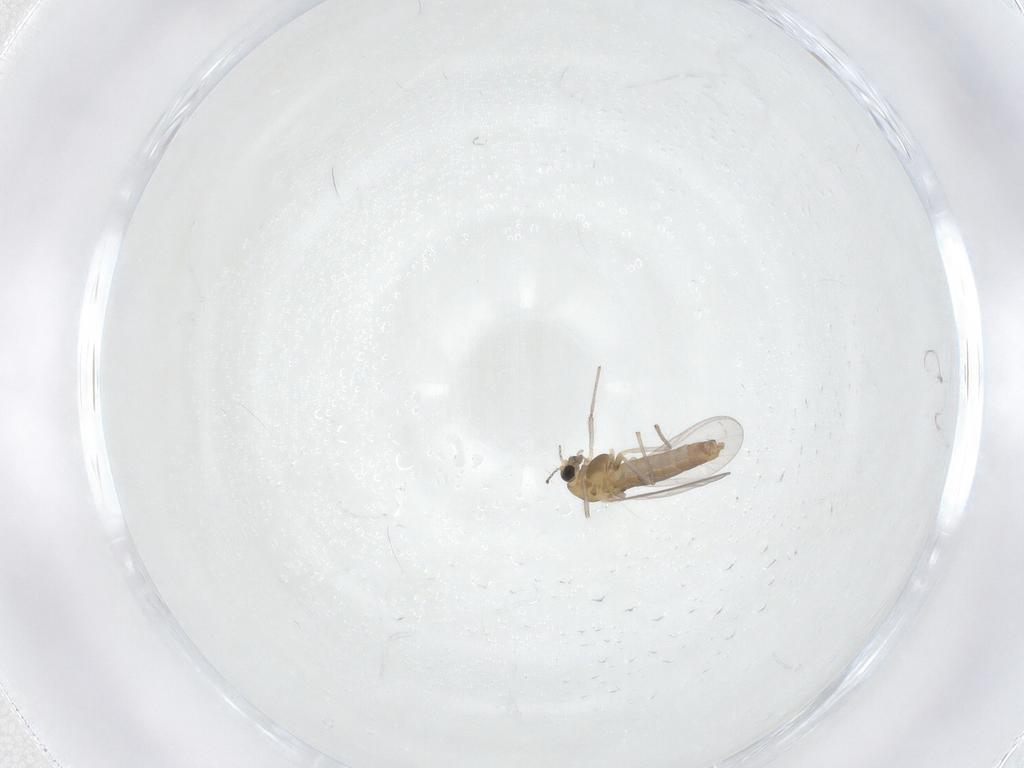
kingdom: Animalia
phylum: Arthropoda
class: Insecta
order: Diptera
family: Chironomidae
